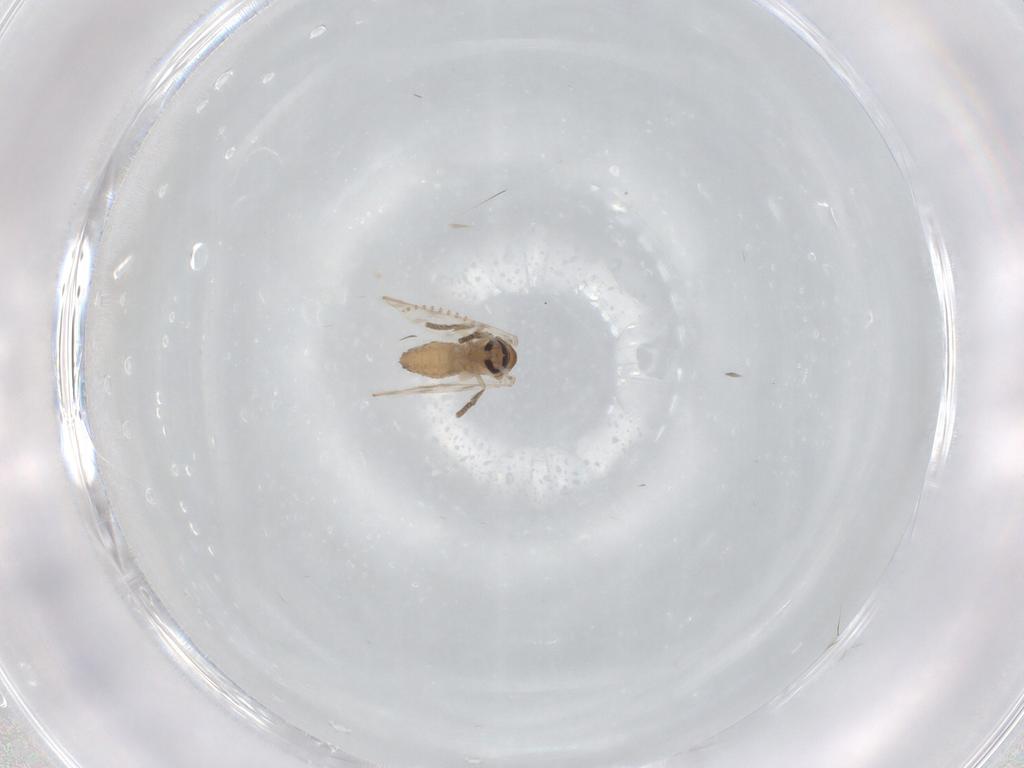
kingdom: Animalia
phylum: Arthropoda
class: Insecta
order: Diptera
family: Psychodidae
